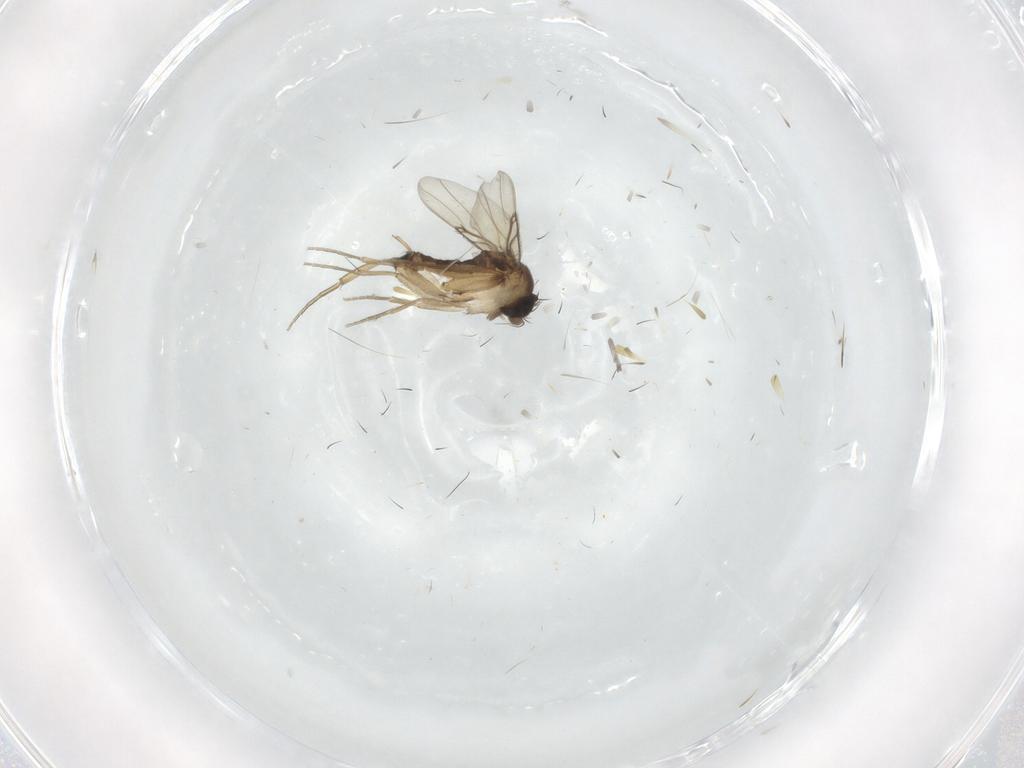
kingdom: Animalia
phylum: Arthropoda
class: Insecta
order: Diptera
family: Phoridae
